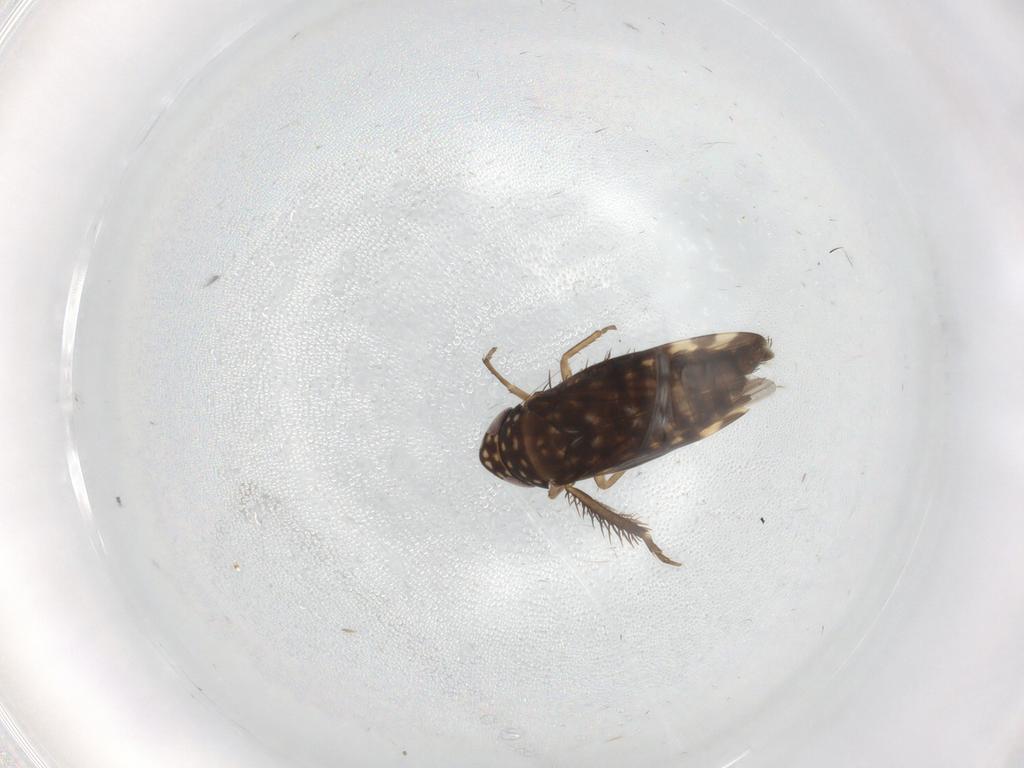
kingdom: Animalia
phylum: Arthropoda
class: Insecta
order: Hemiptera
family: Cicadellidae
